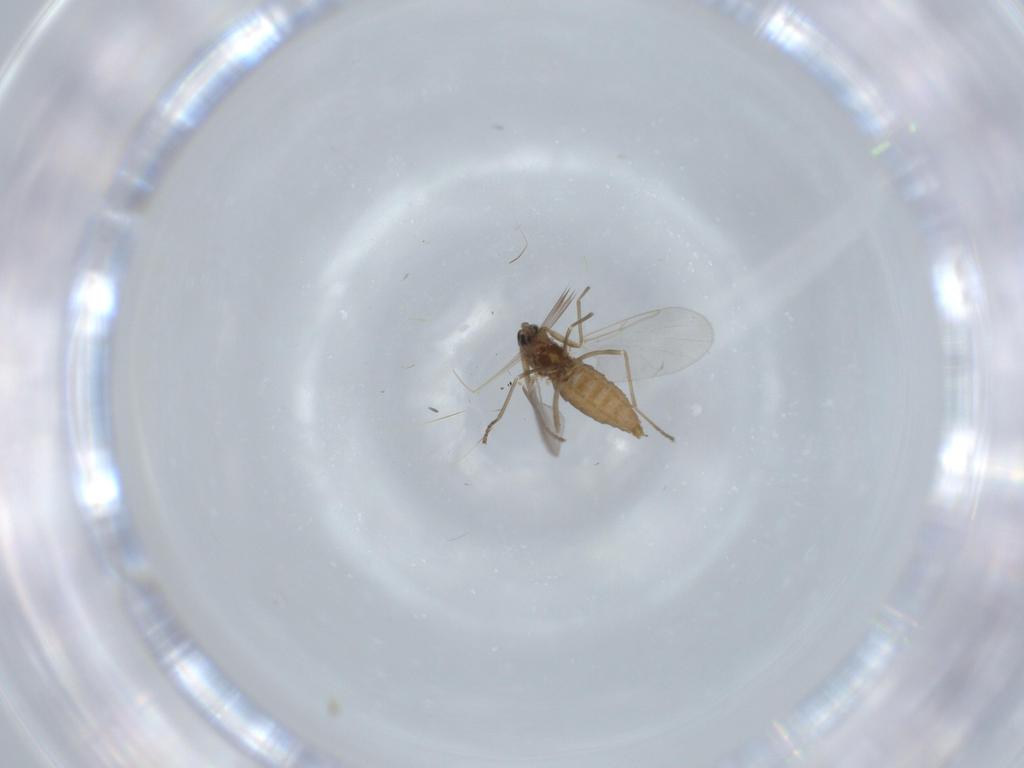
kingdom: Animalia
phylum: Arthropoda
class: Insecta
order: Diptera
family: Cecidomyiidae
